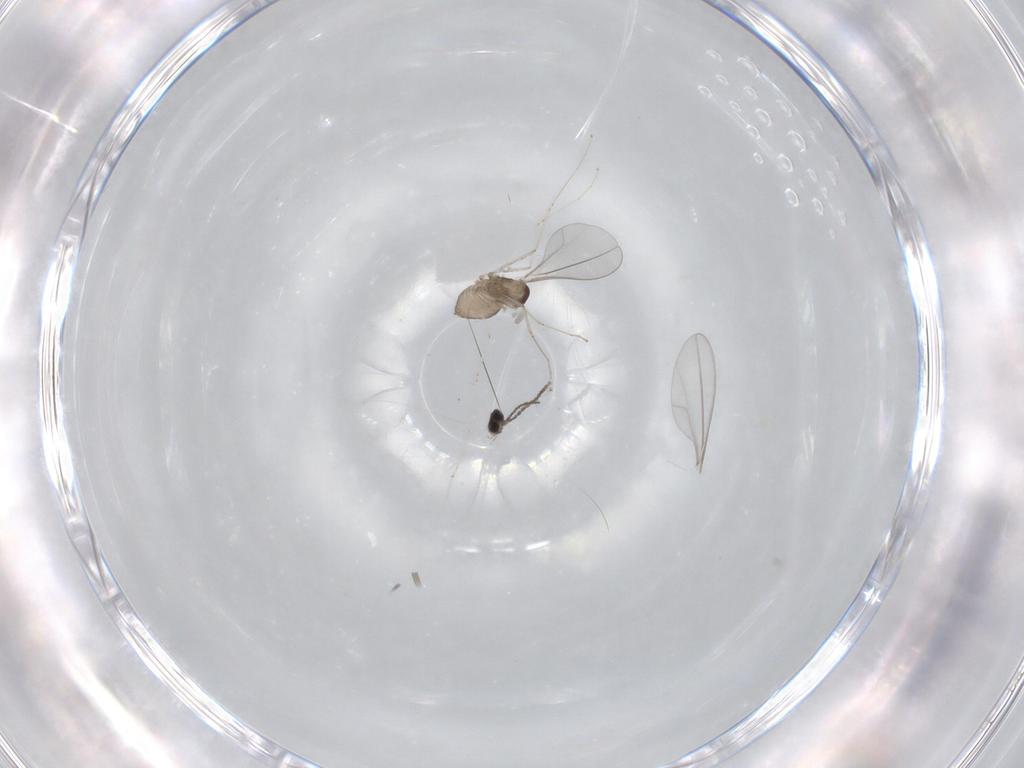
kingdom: Animalia
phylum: Arthropoda
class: Insecta
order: Diptera
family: Cecidomyiidae
